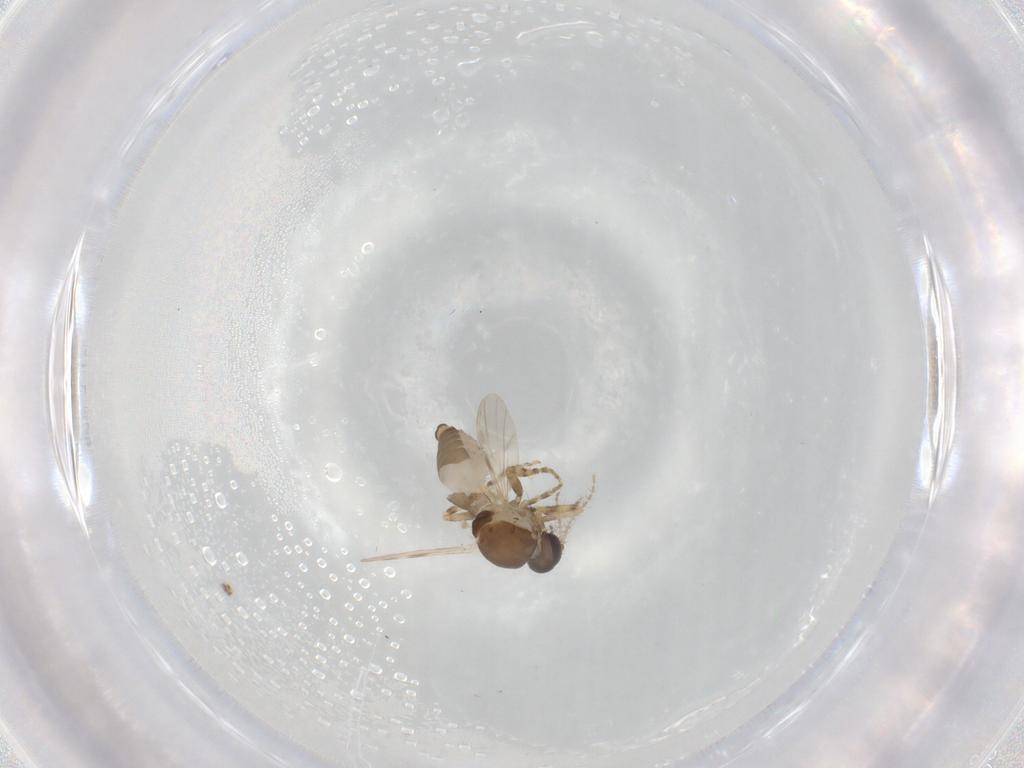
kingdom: Animalia
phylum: Arthropoda
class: Insecta
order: Diptera
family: Ceratopogonidae
